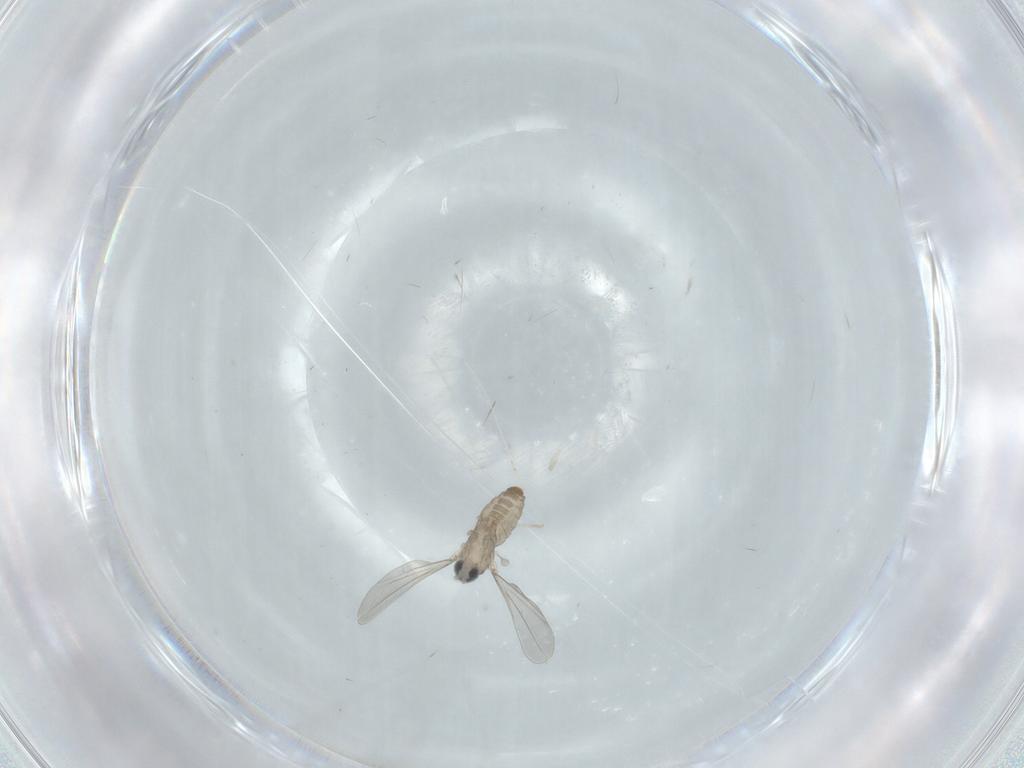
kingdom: Animalia
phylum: Arthropoda
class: Insecta
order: Diptera
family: Cecidomyiidae
